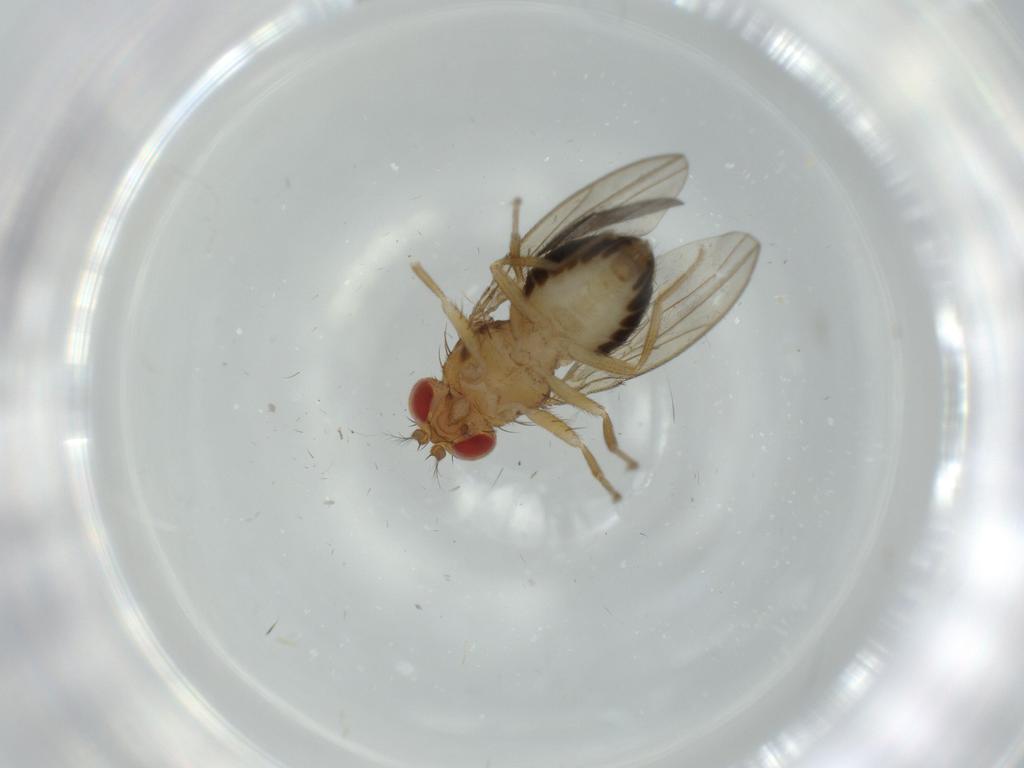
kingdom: Animalia
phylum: Arthropoda
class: Insecta
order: Diptera
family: Drosophilidae
